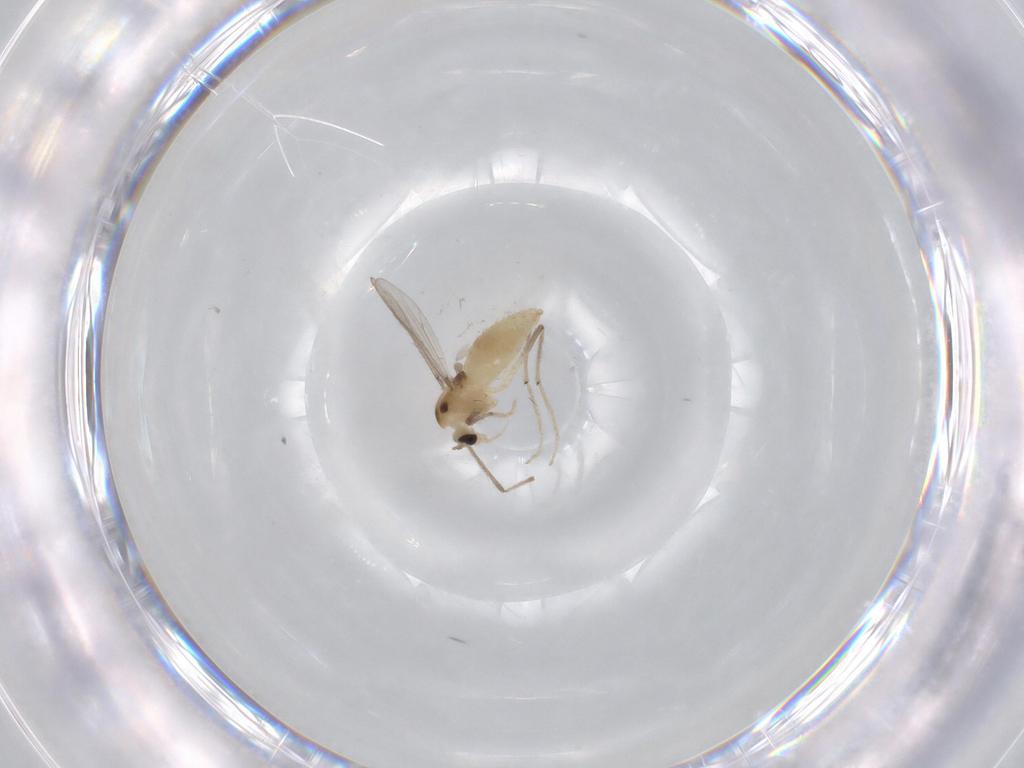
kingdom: Animalia
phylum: Arthropoda
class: Insecta
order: Diptera
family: Chironomidae
